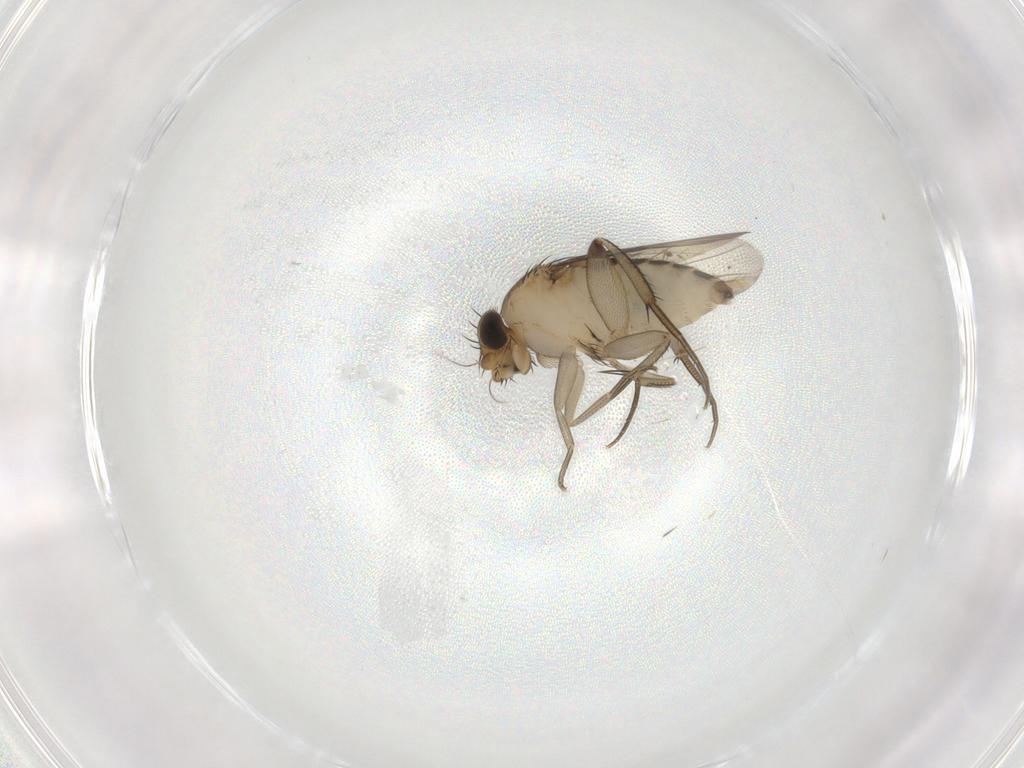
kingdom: Animalia
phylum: Arthropoda
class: Insecta
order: Diptera
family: Phoridae
